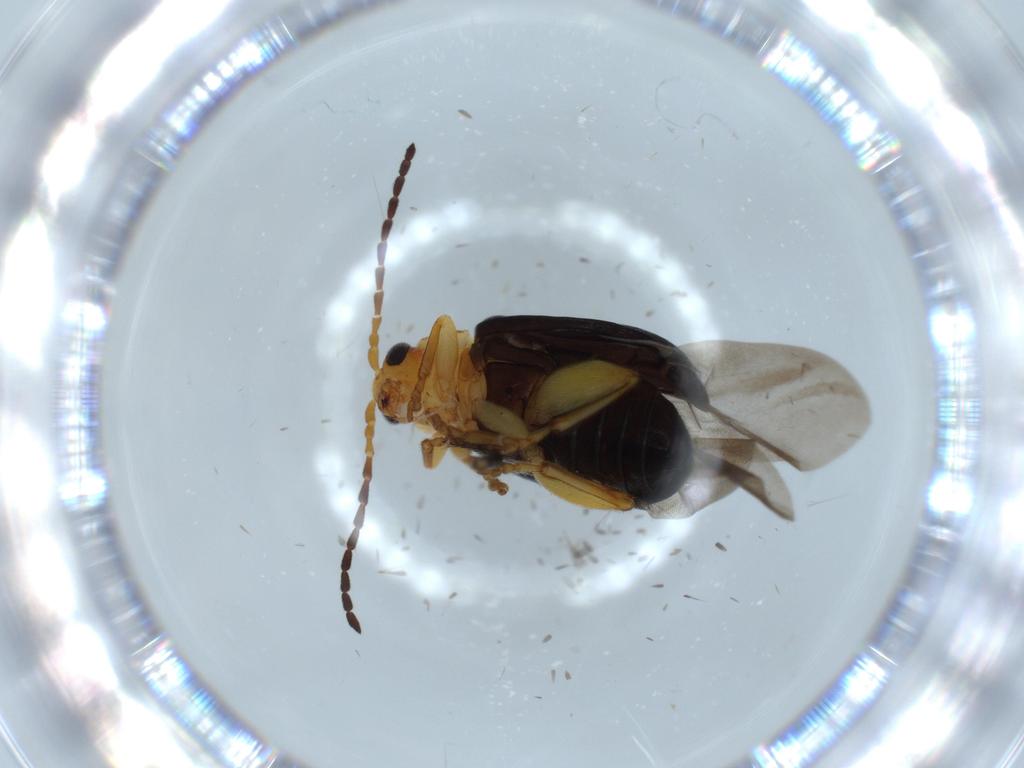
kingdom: Animalia
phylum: Arthropoda
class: Insecta
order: Coleoptera
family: Chrysomelidae
